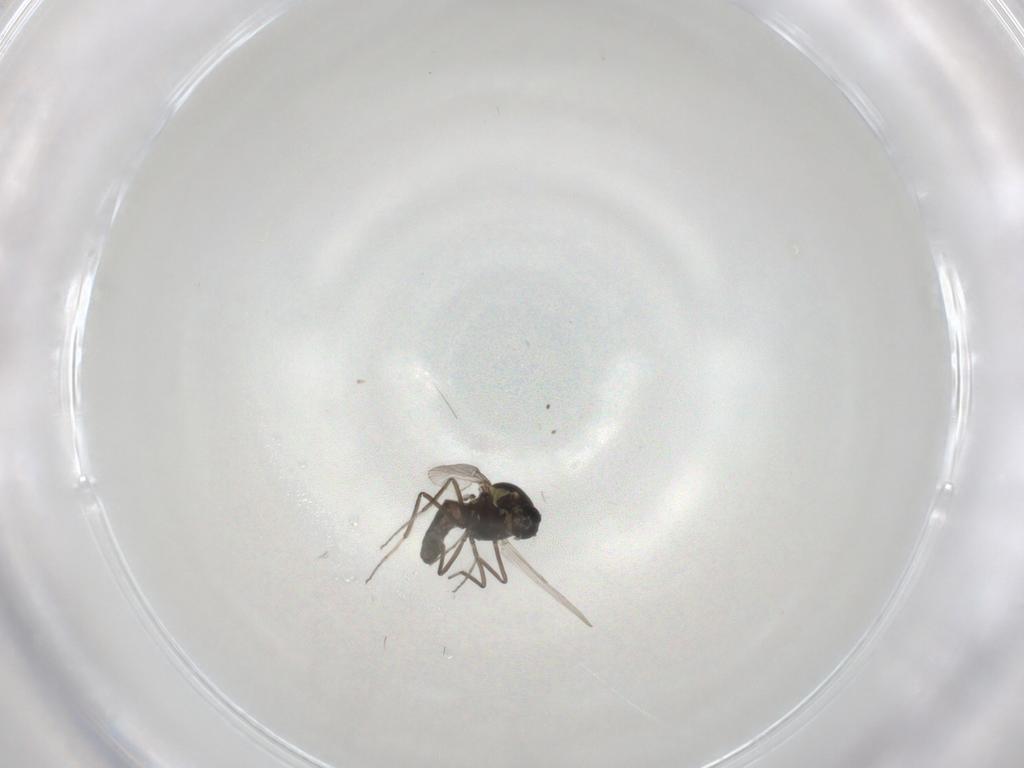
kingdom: Animalia
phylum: Arthropoda
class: Insecta
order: Diptera
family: Ceratopogonidae
